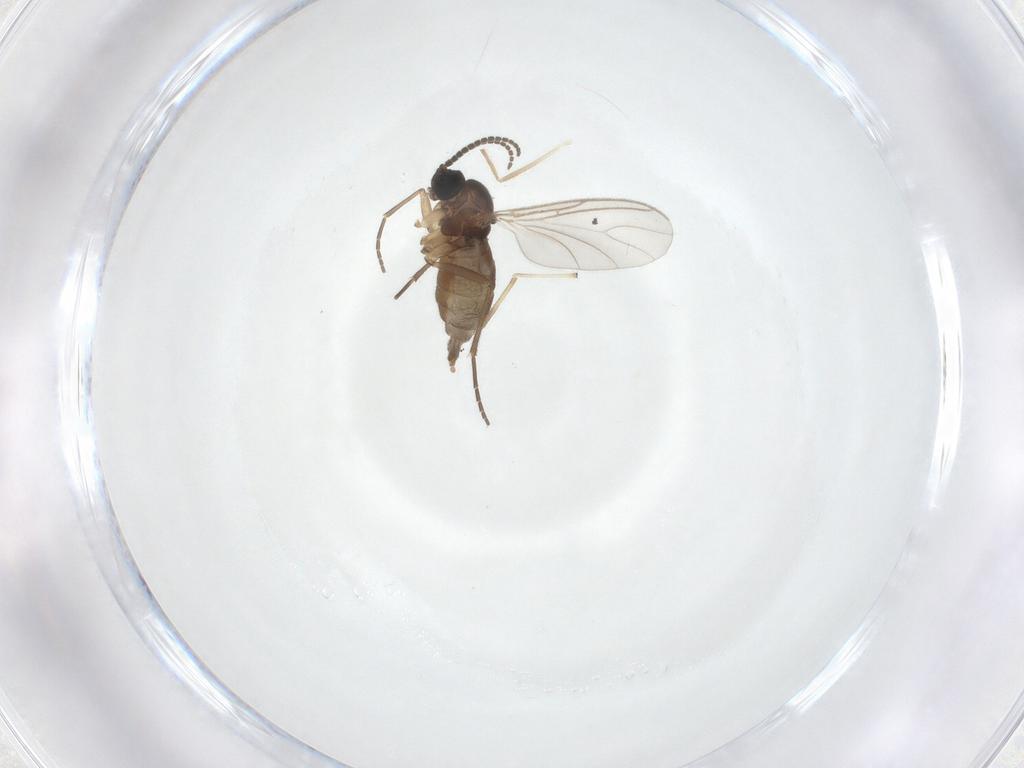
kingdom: Animalia
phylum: Arthropoda
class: Insecta
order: Diptera
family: Sciaridae
